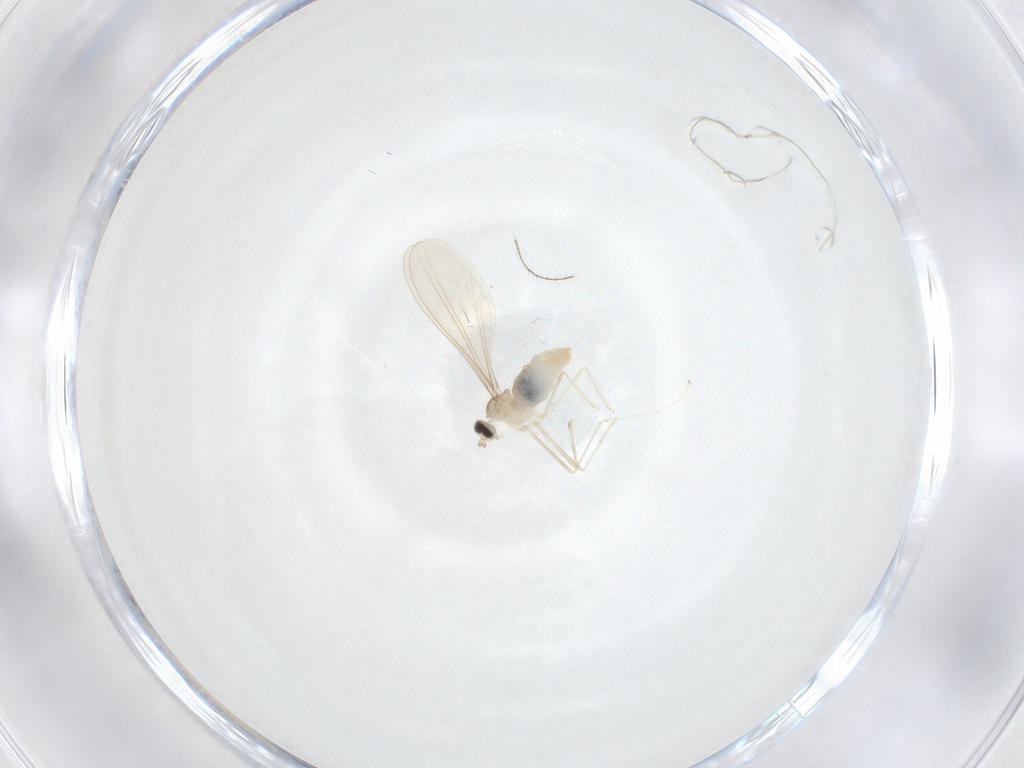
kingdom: Animalia
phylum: Arthropoda
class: Insecta
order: Diptera
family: Cecidomyiidae
